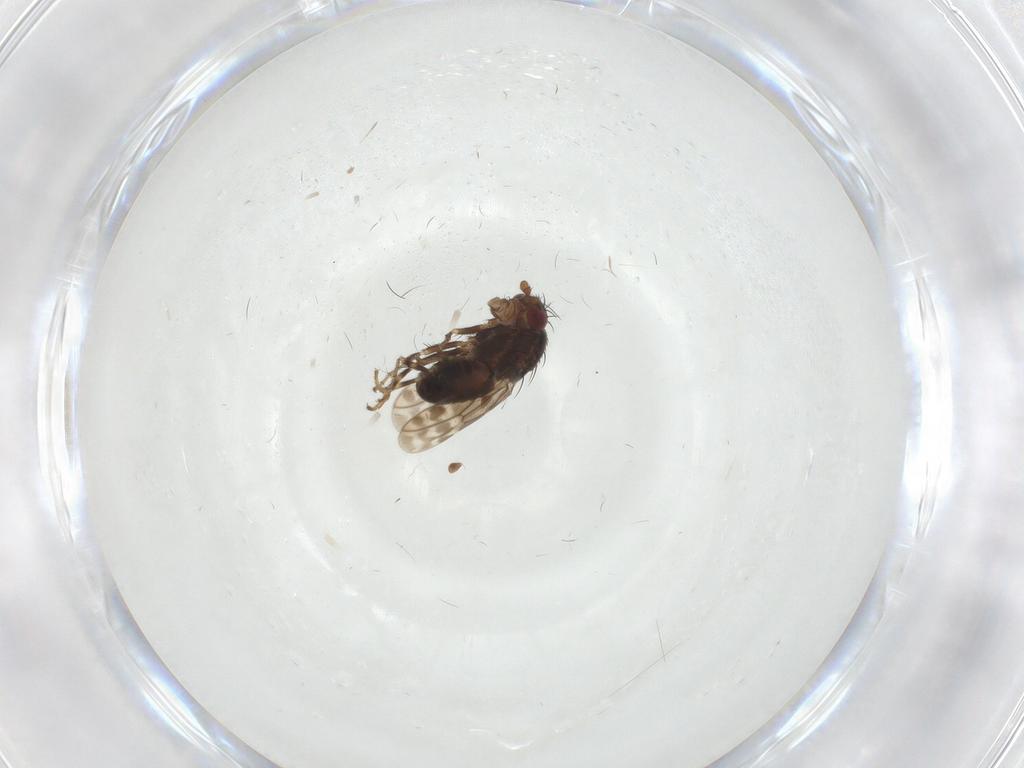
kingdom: Animalia
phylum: Arthropoda
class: Insecta
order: Diptera
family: Sphaeroceridae
